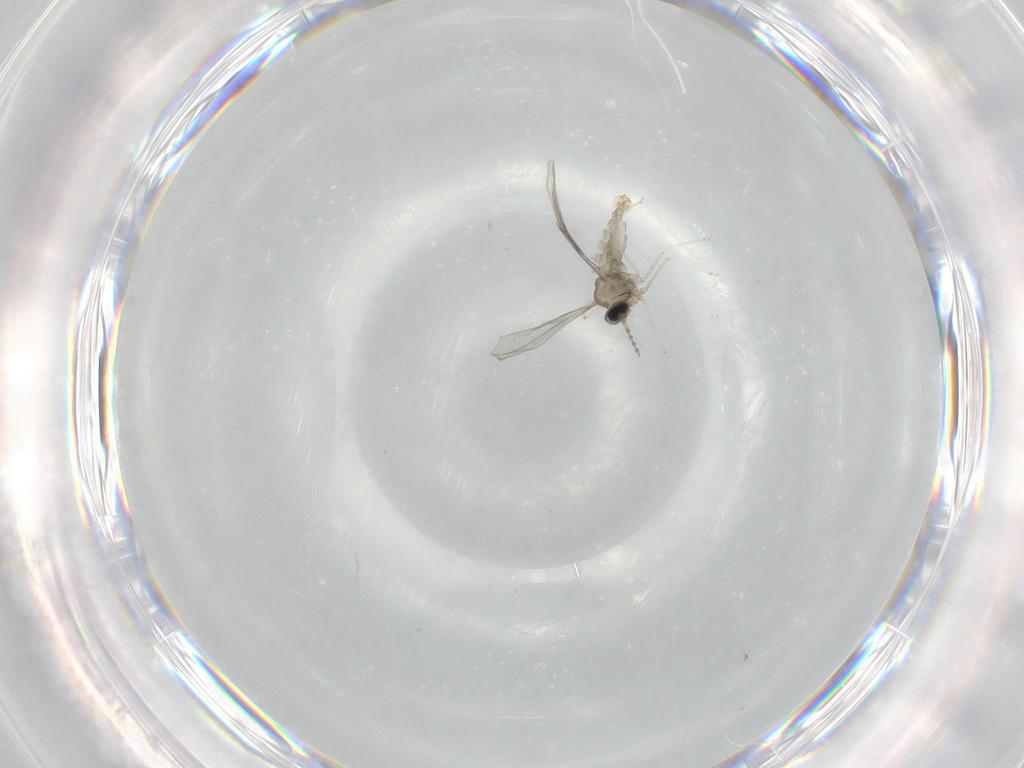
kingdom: Animalia
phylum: Arthropoda
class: Insecta
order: Diptera
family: Cecidomyiidae
